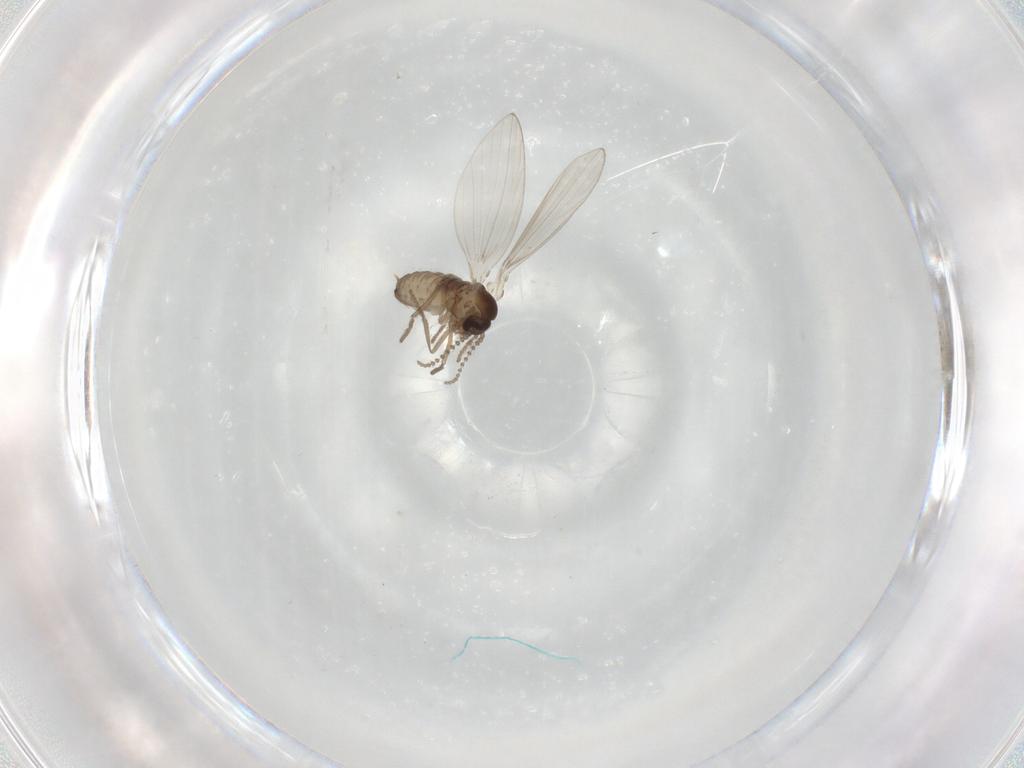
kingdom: Animalia
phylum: Arthropoda
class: Insecta
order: Diptera
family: Psychodidae
